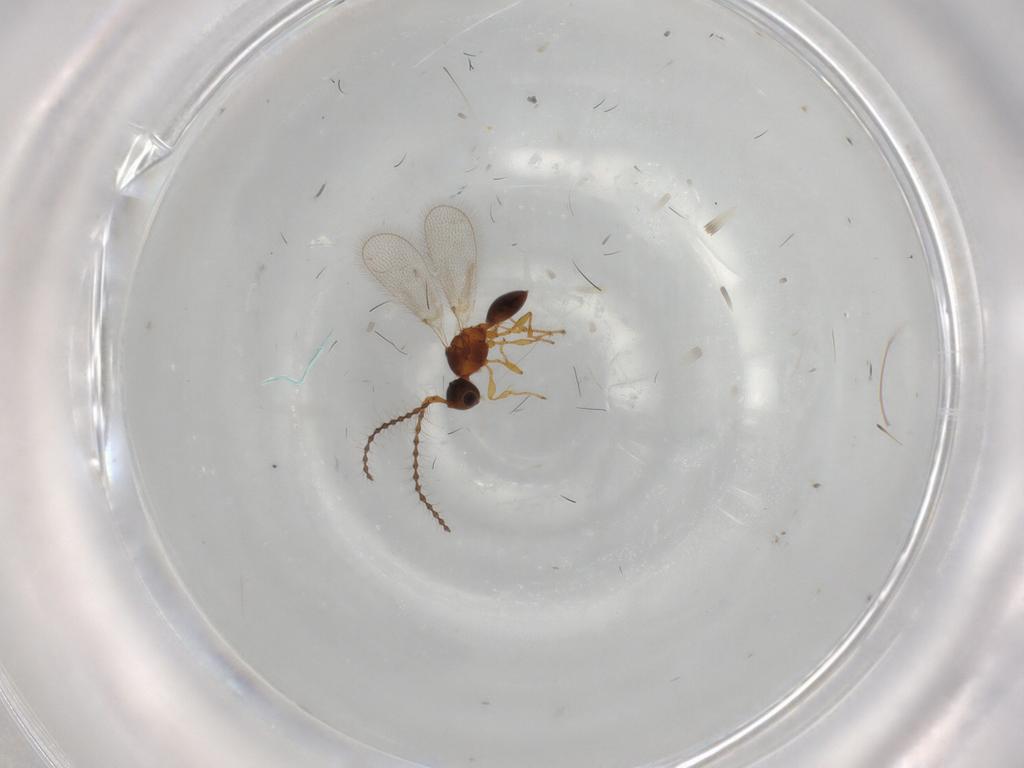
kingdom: Animalia
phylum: Arthropoda
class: Insecta
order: Hymenoptera
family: Diapriidae
